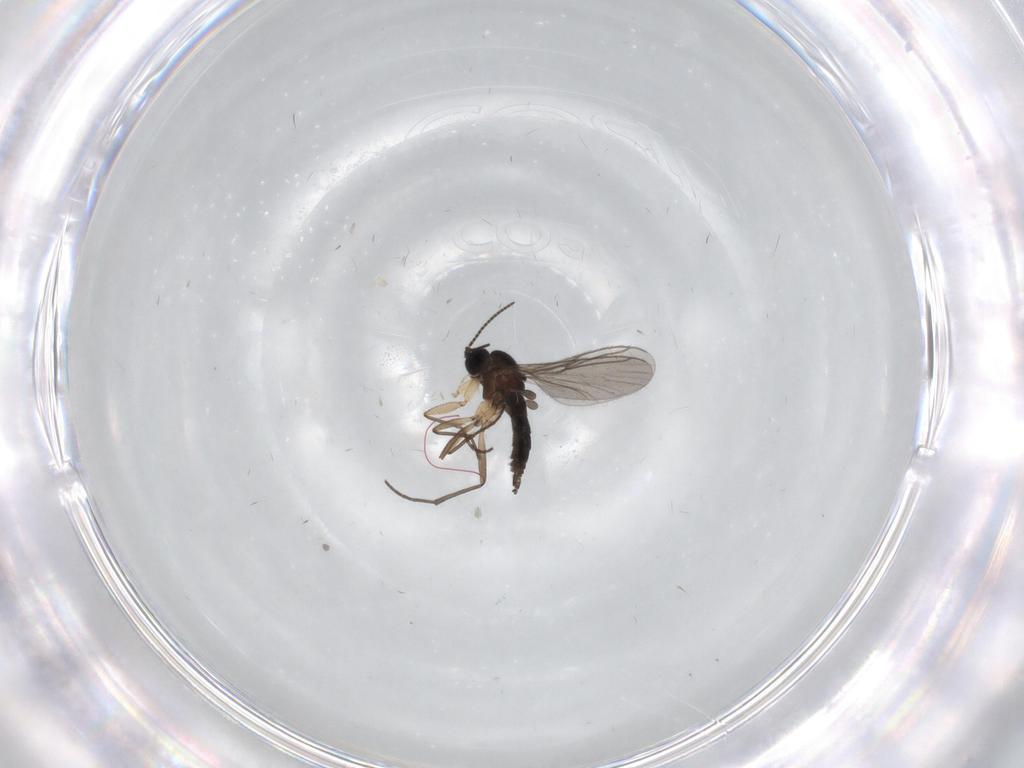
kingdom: Animalia
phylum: Arthropoda
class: Insecta
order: Diptera
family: Sciaridae
